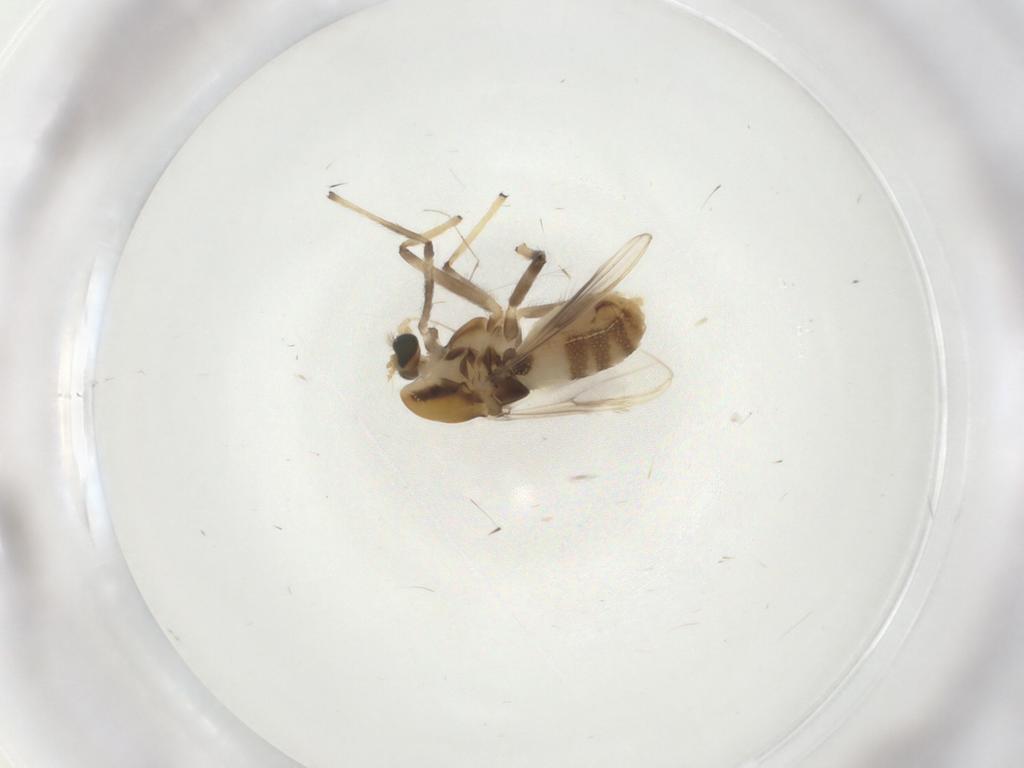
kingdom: Animalia
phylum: Arthropoda
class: Insecta
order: Diptera
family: Chironomidae
